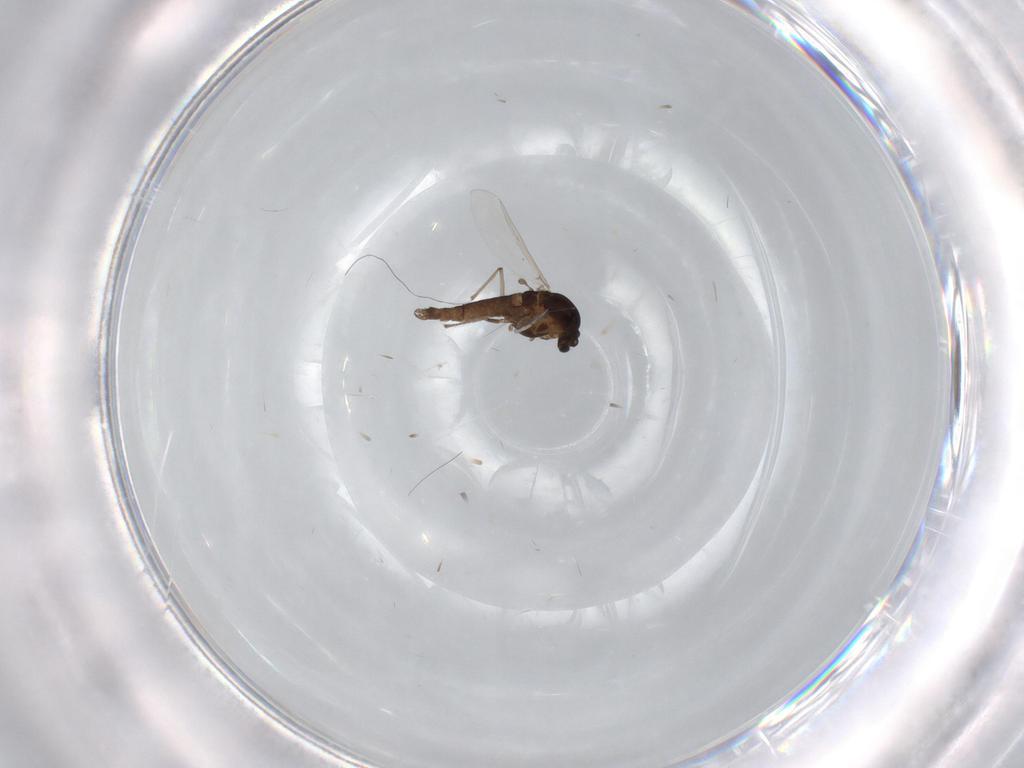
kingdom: Animalia
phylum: Arthropoda
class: Insecta
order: Diptera
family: Chironomidae
